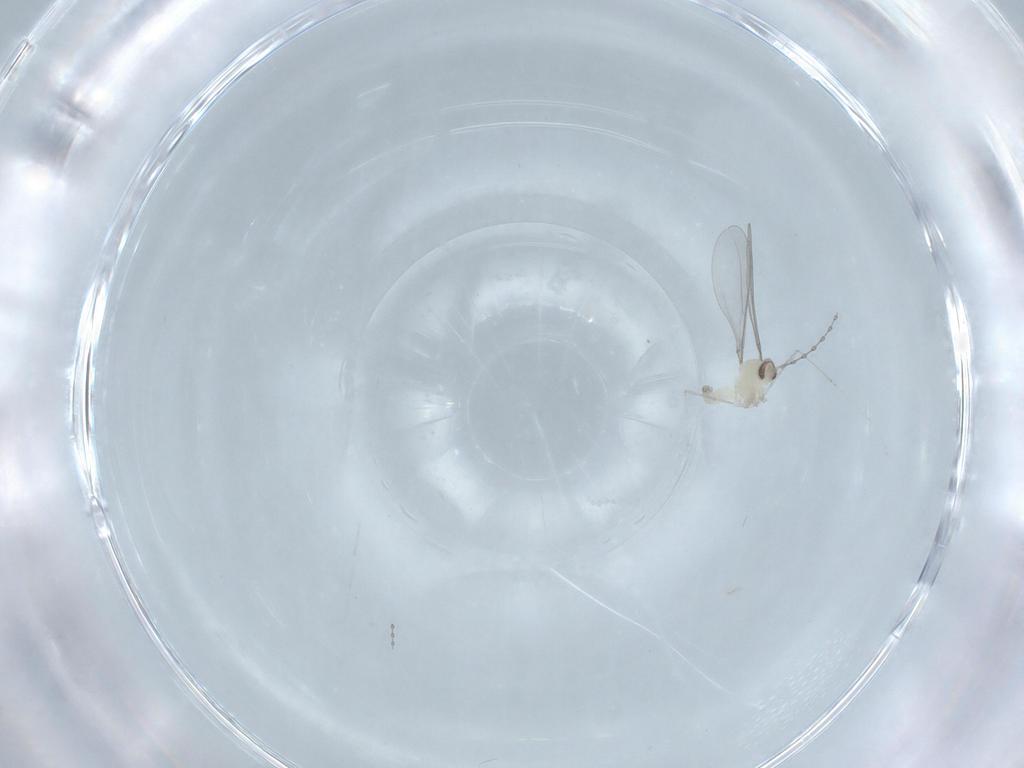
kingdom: Animalia
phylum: Arthropoda
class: Insecta
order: Diptera
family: Cecidomyiidae
